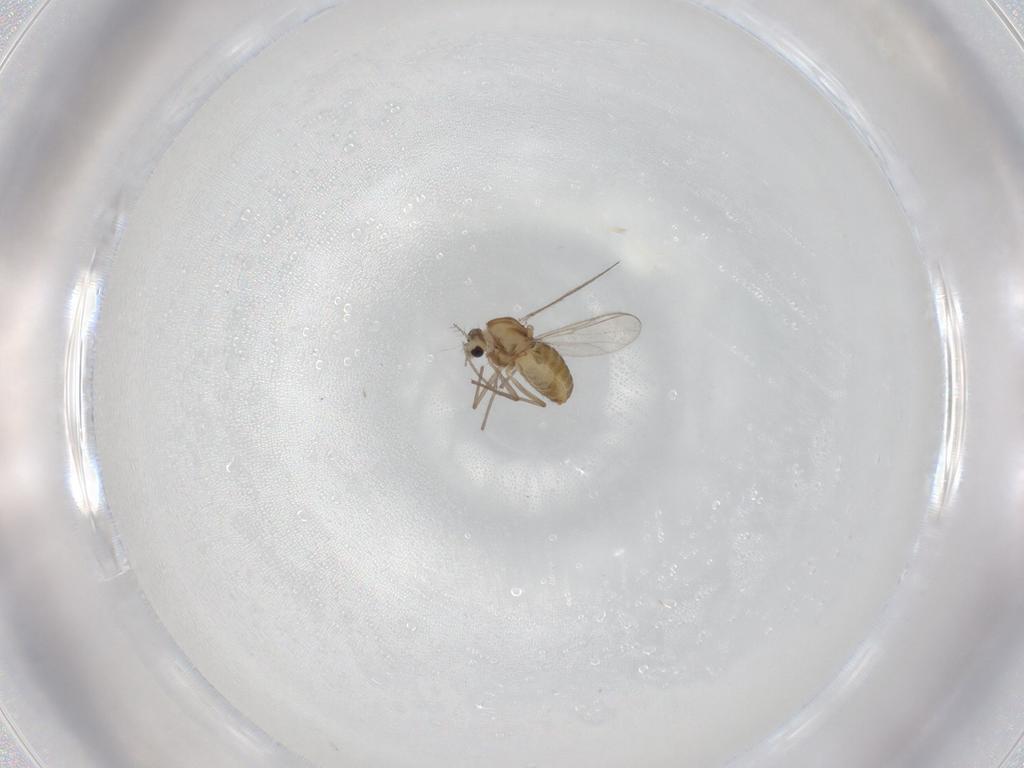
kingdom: Animalia
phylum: Arthropoda
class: Insecta
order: Diptera
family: Chironomidae
